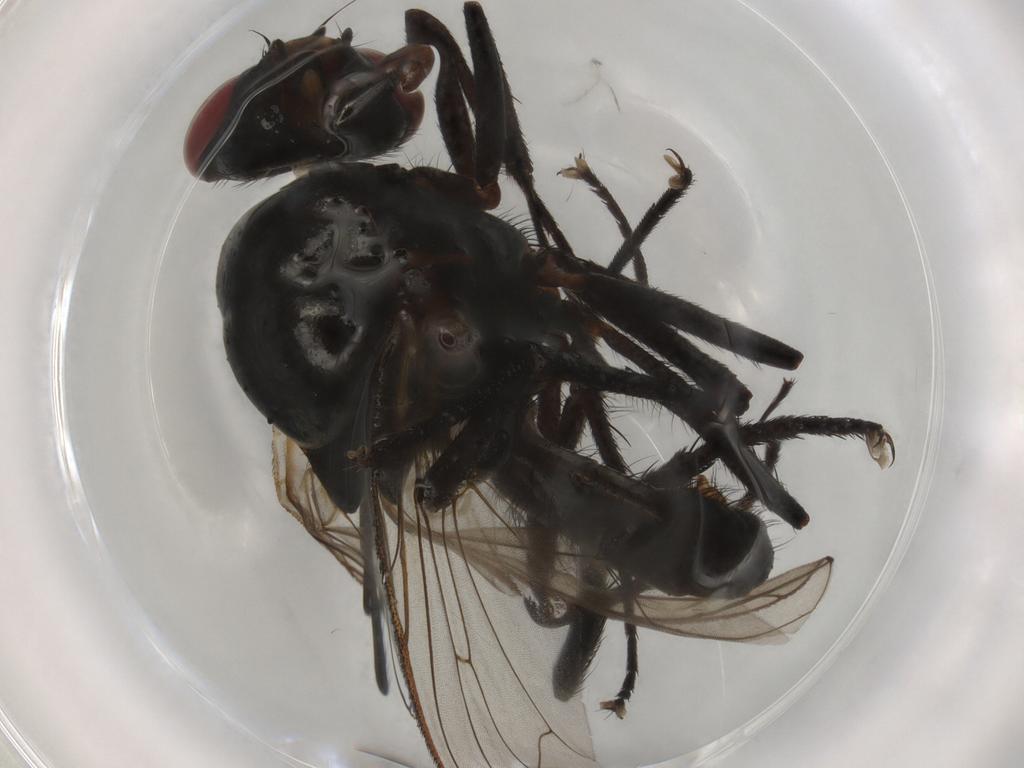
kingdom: Animalia
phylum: Arthropoda
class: Insecta
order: Diptera
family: Anthomyiidae
